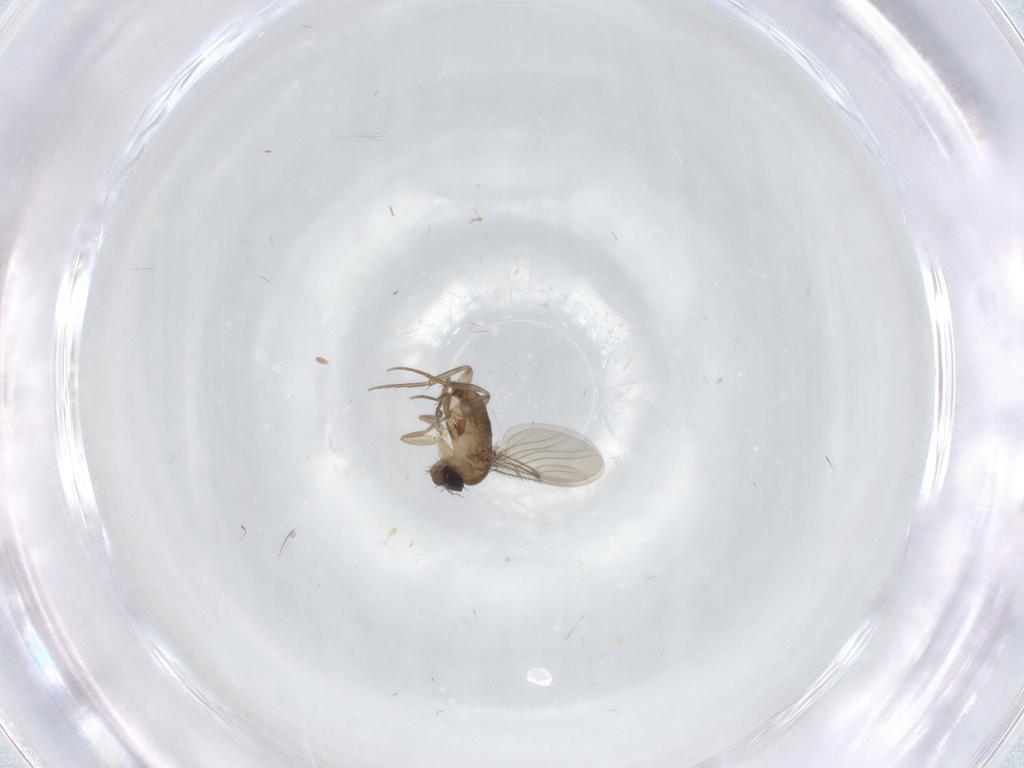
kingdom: Animalia
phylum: Arthropoda
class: Insecta
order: Diptera
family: Phoridae
